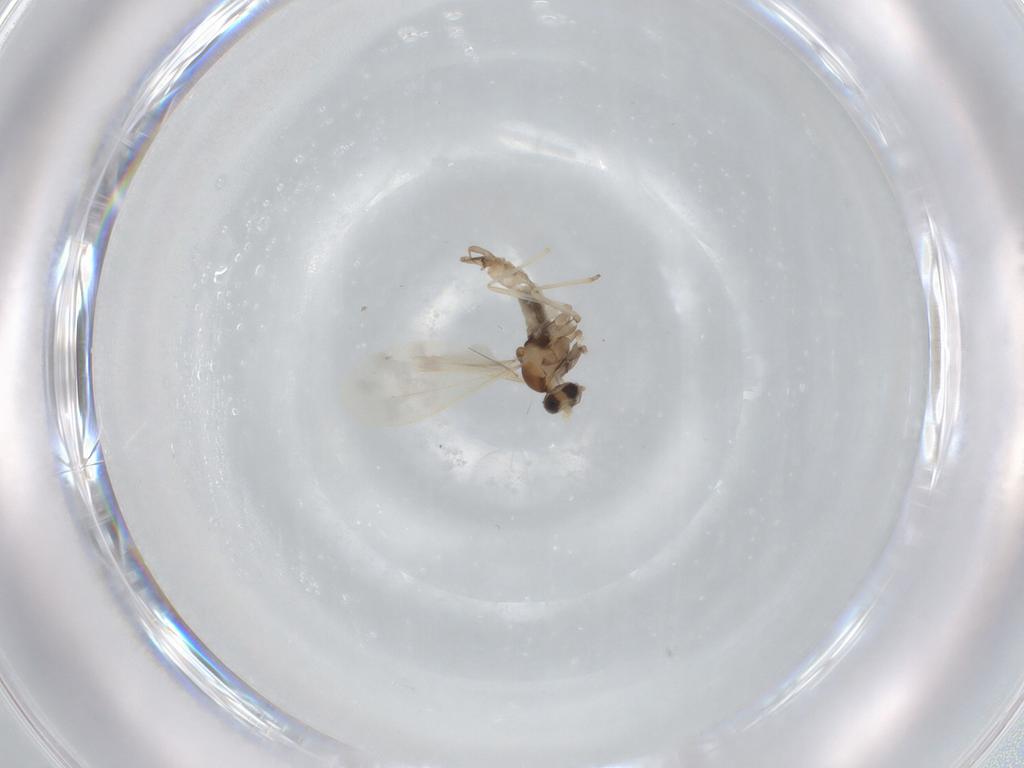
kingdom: Animalia
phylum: Arthropoda
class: Insecta
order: Diptera
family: Cecidomyiidae
